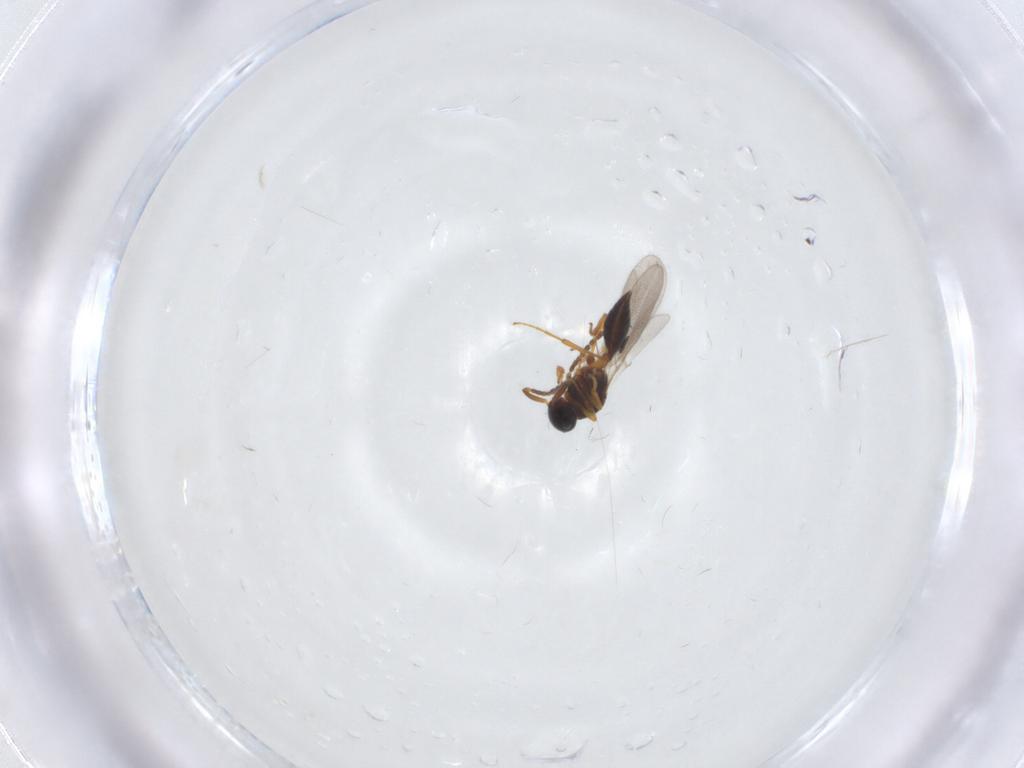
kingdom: Animalia
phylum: Arthropoda
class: Insecta
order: Hymenoptera
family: Platygastridae
